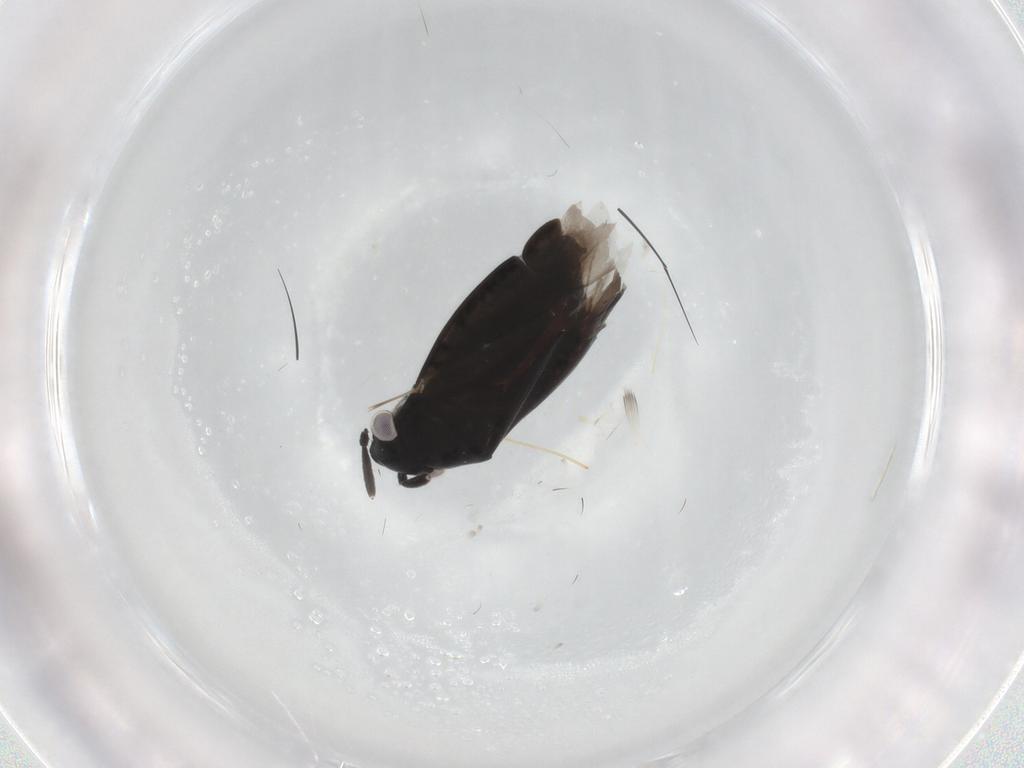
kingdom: Animalia
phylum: Arthropoda
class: Insecta
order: Hemiptera
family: Miridae
